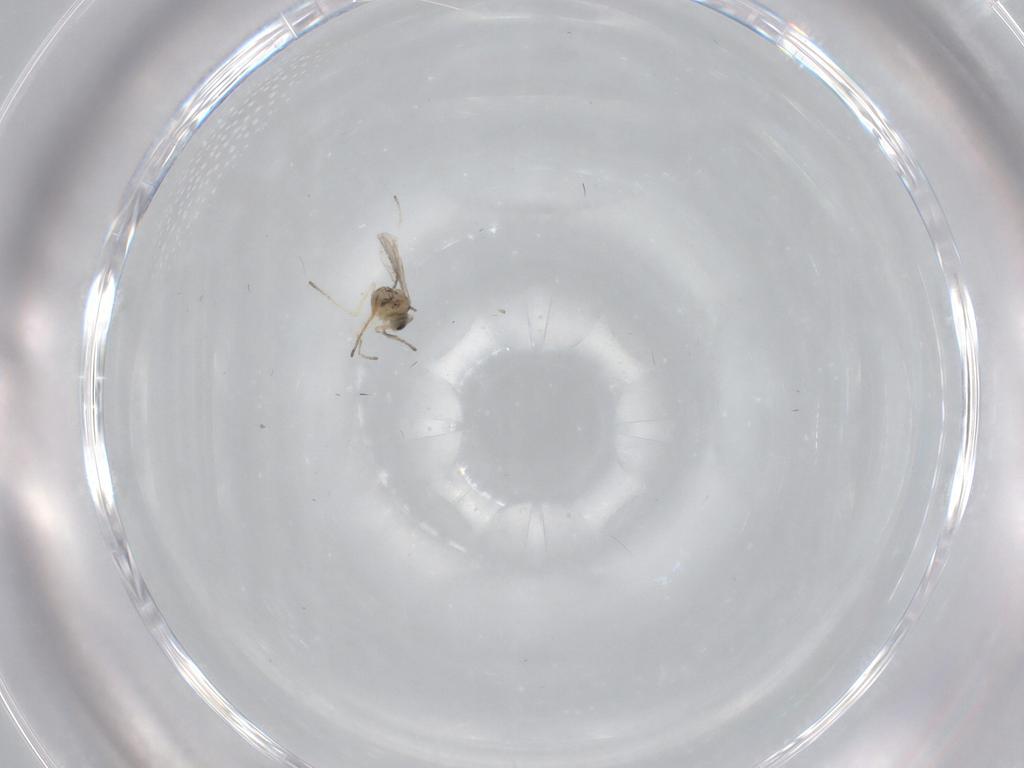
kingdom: Animalia
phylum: Arthropoda
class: Insecta
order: Diptera
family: Cecidomyiidae
